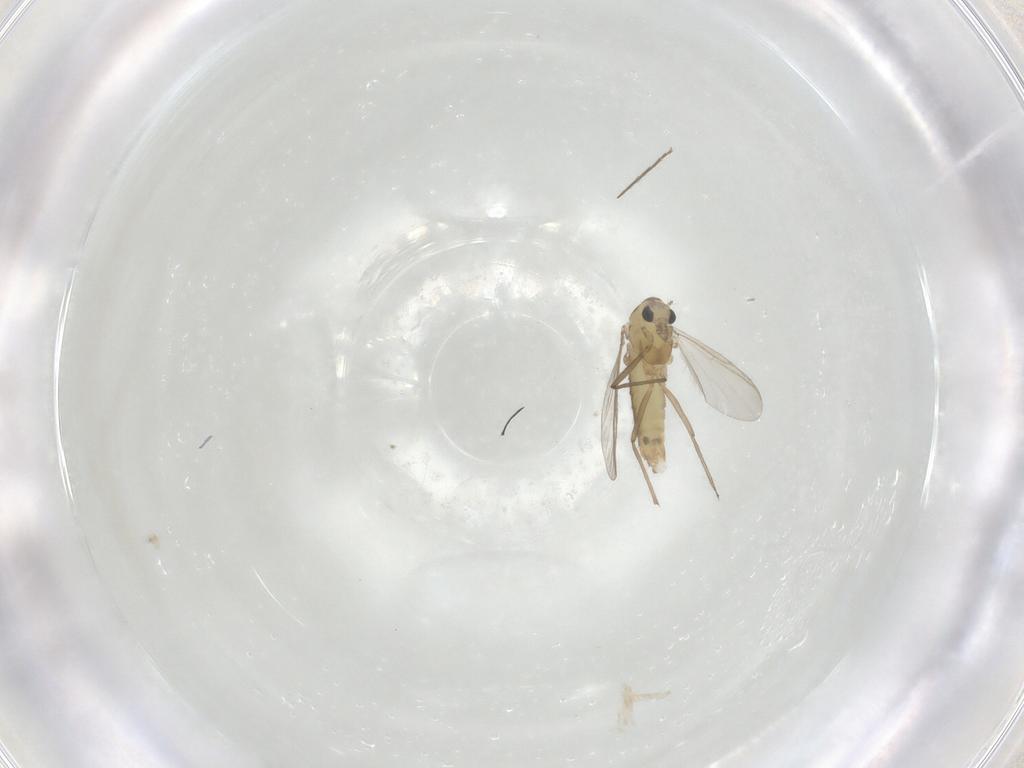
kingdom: Animalia
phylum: Arthropoda
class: Insecta
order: Diptera
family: Chironomidae
